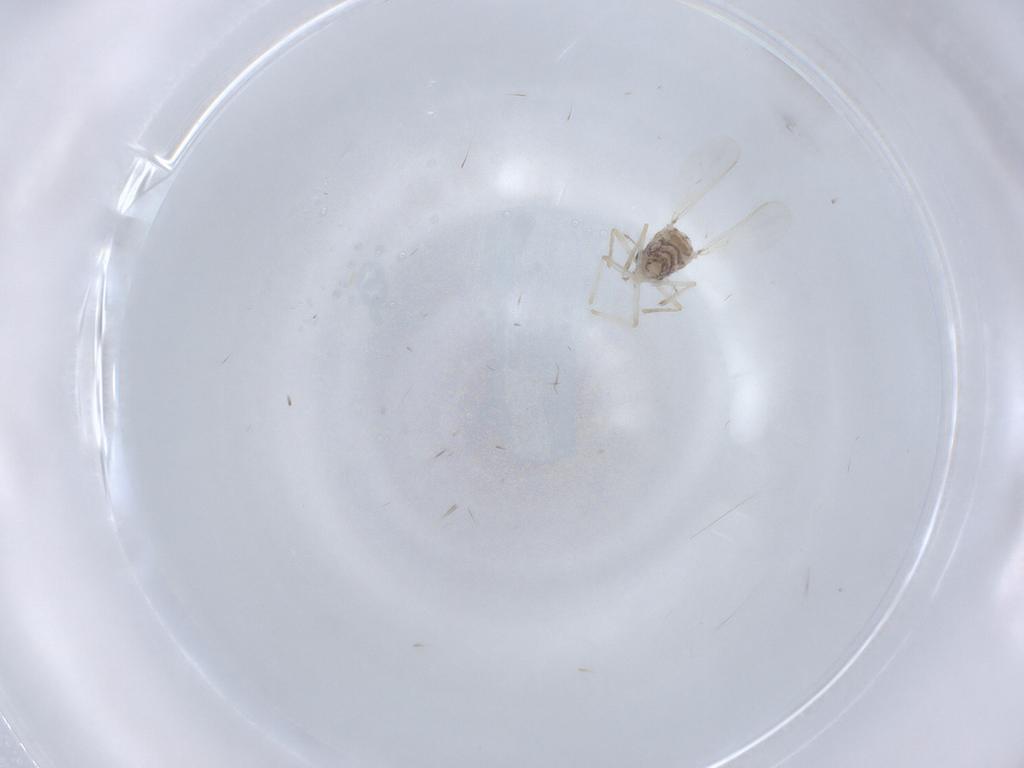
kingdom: Animalia
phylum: Arthropoda
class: Insecta
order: Diptera
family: Chironomidae
